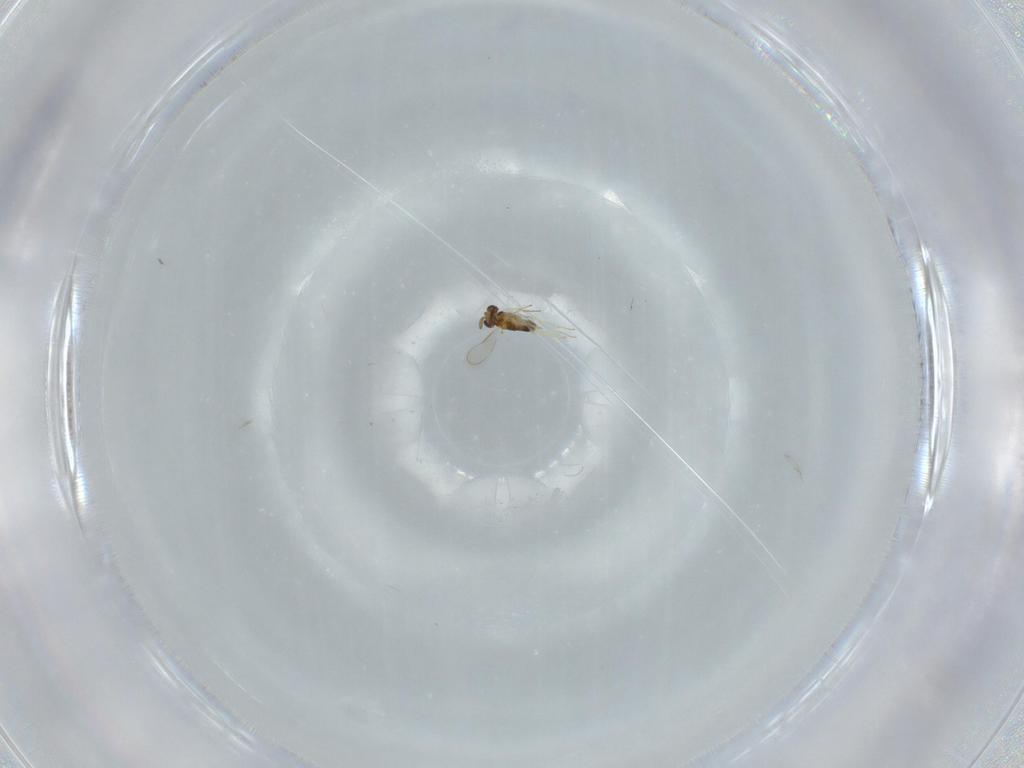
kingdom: Animalia
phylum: Arthropoda
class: Insecta
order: Hymenoptera
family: Aphelinidae
